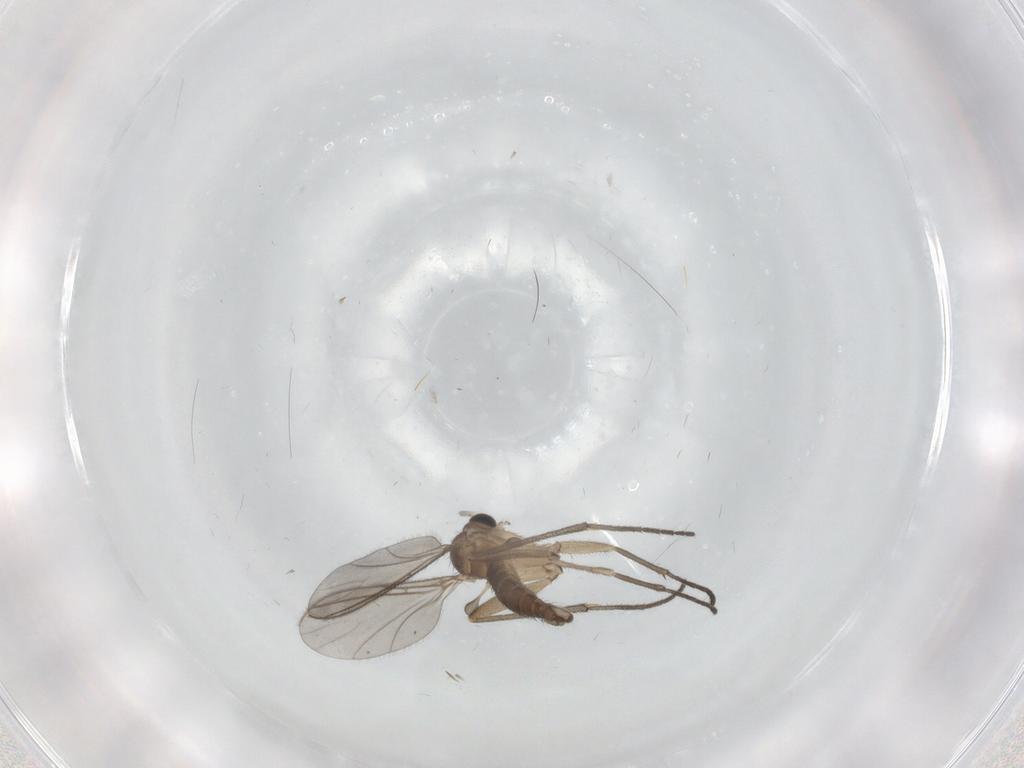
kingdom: Animalia
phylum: Arthropoda
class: Insecta
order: Diptera
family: Sciaridae
